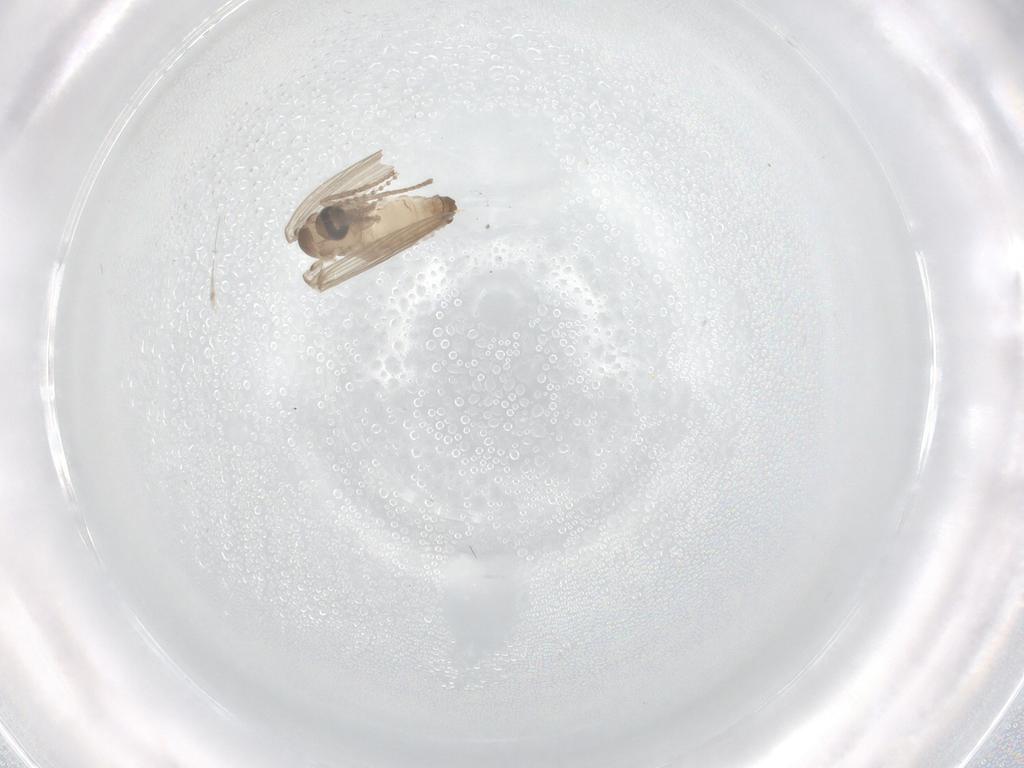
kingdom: Animalia
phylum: Arthropoda
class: Insecta
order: Diptera
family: Psychodidae
